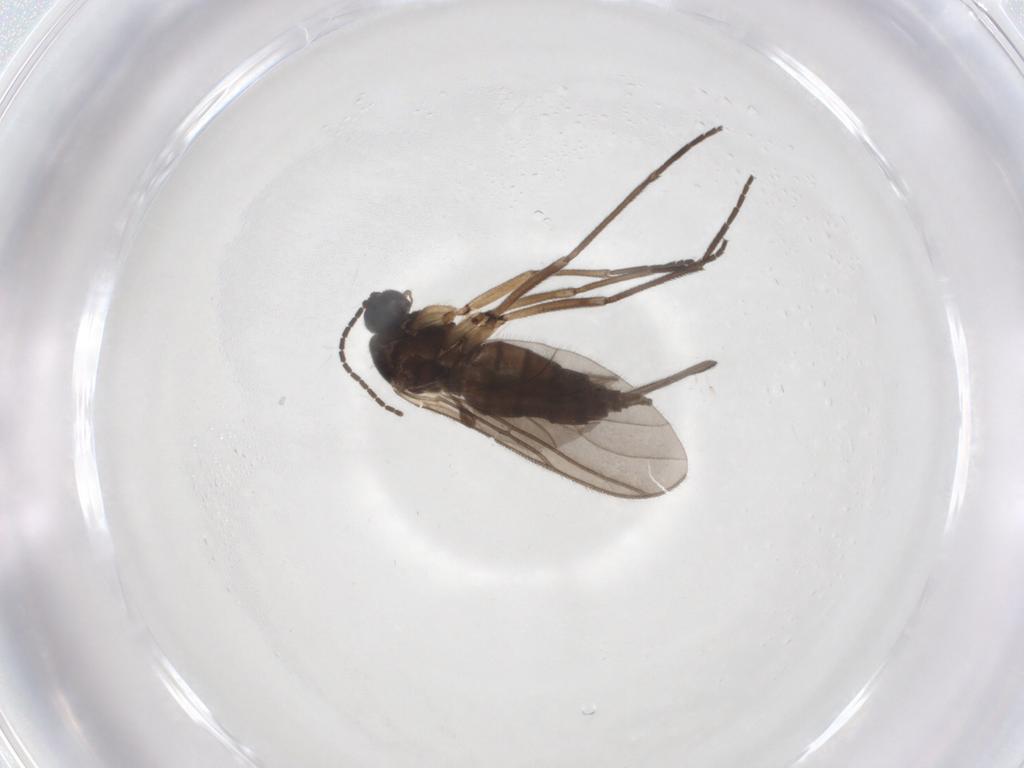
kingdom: Animalia
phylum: Arthropoda
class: Insecta
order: Diptera
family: Sciaridae
